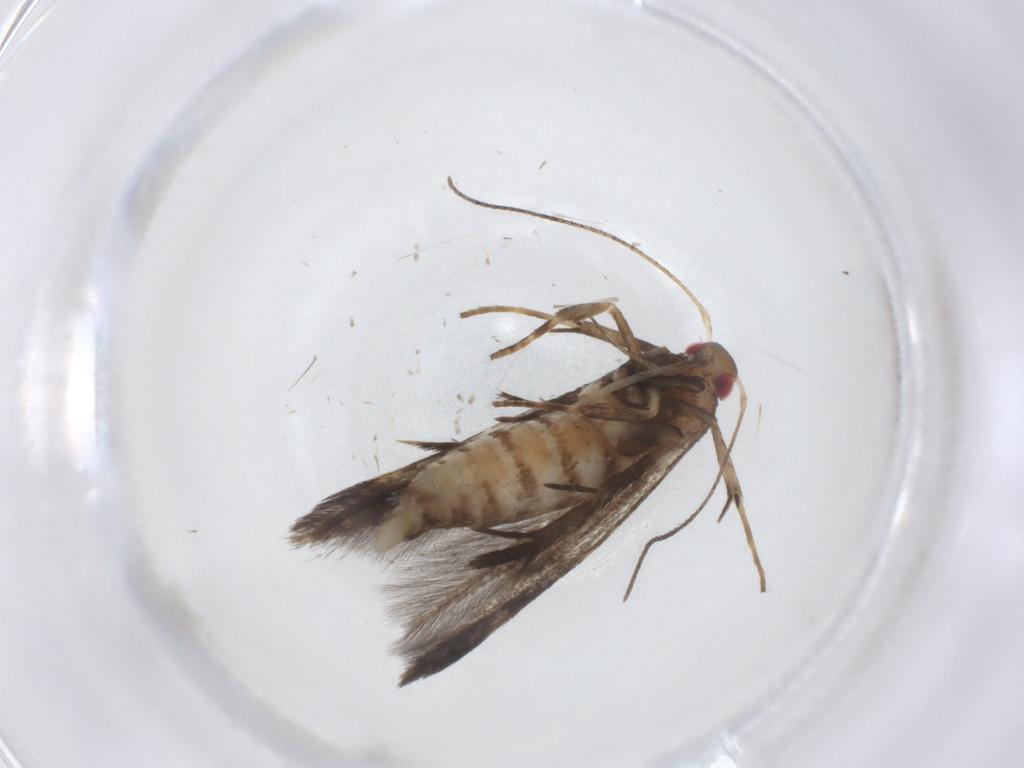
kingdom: Animalia
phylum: Arthropoda
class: Insecta
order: Lepidoptera
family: Gelechiidae
